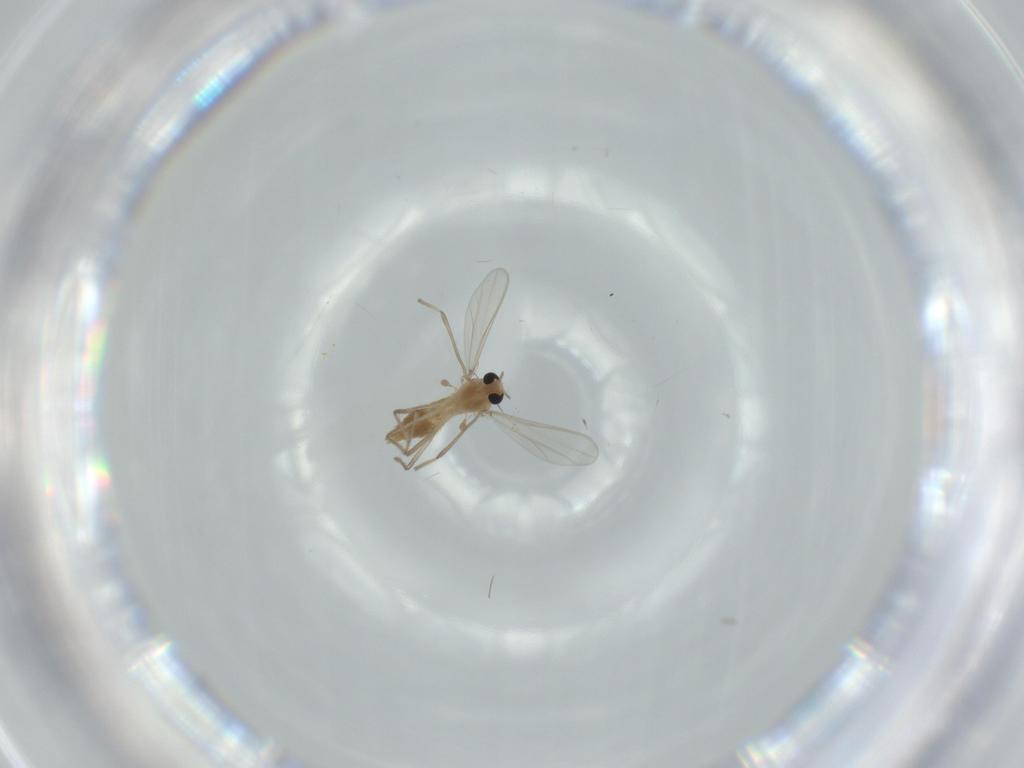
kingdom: Animalia
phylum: Arthropoda
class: Insecta
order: Diptera
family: Chironomidae
